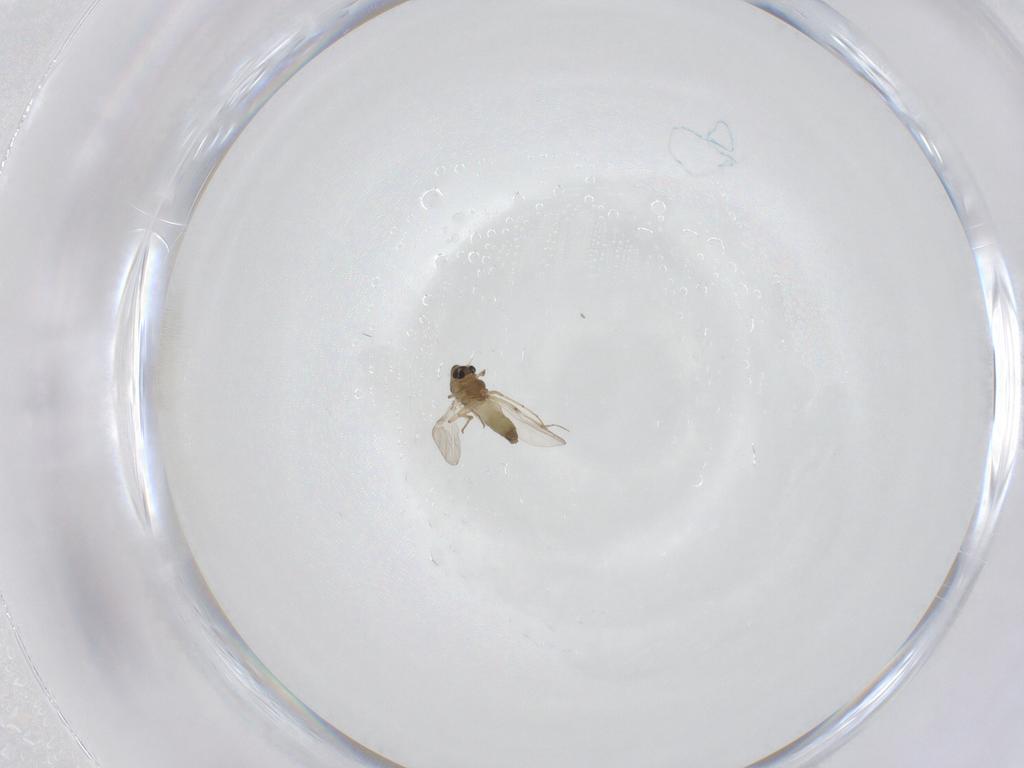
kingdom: Animalia
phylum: Arthropoda
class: Insecta
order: Diptera
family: Chironomidae
